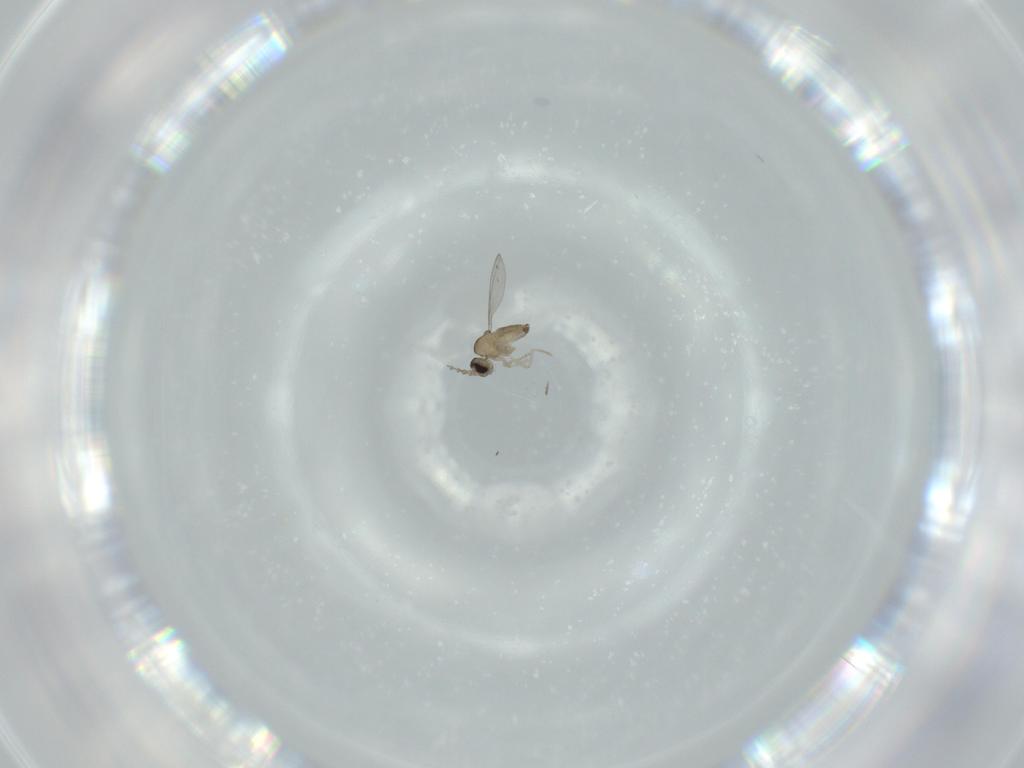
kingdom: Animalia
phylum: Arthropoda
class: Insecta
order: Diptera
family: Cecidomyiidae
